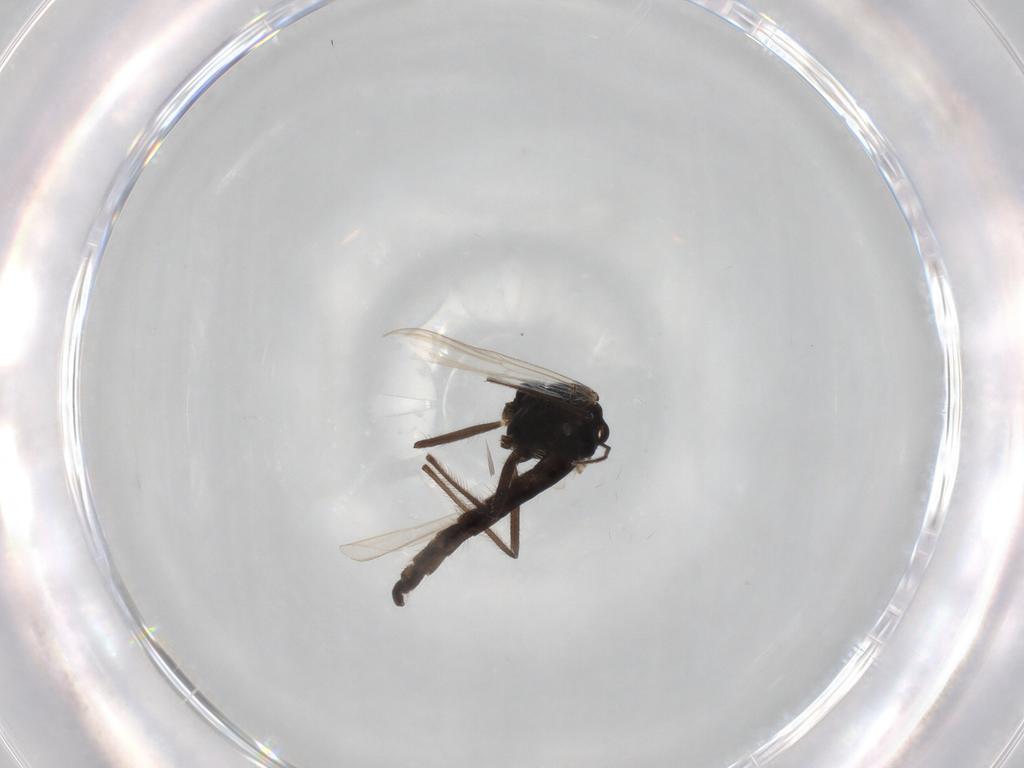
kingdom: Animalia
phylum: Arthropoda
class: Insecta
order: Diptera
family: Chironomidae
